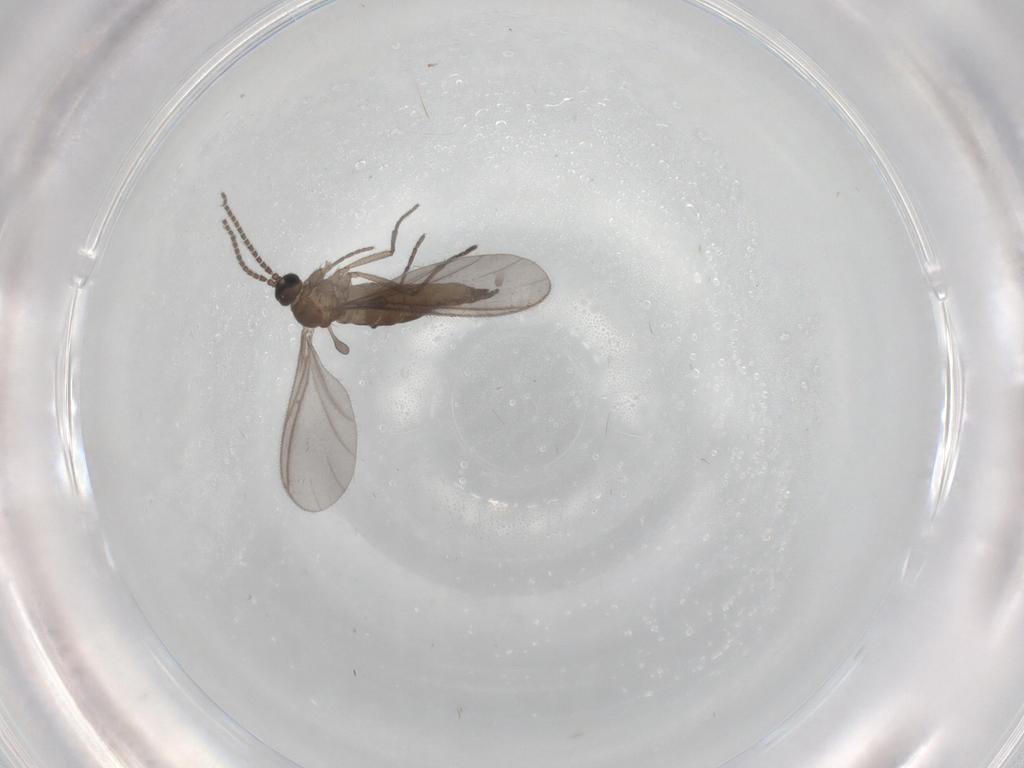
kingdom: Animalia
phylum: Arthropoda
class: Insecta
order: Diptera
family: Sciaridae
